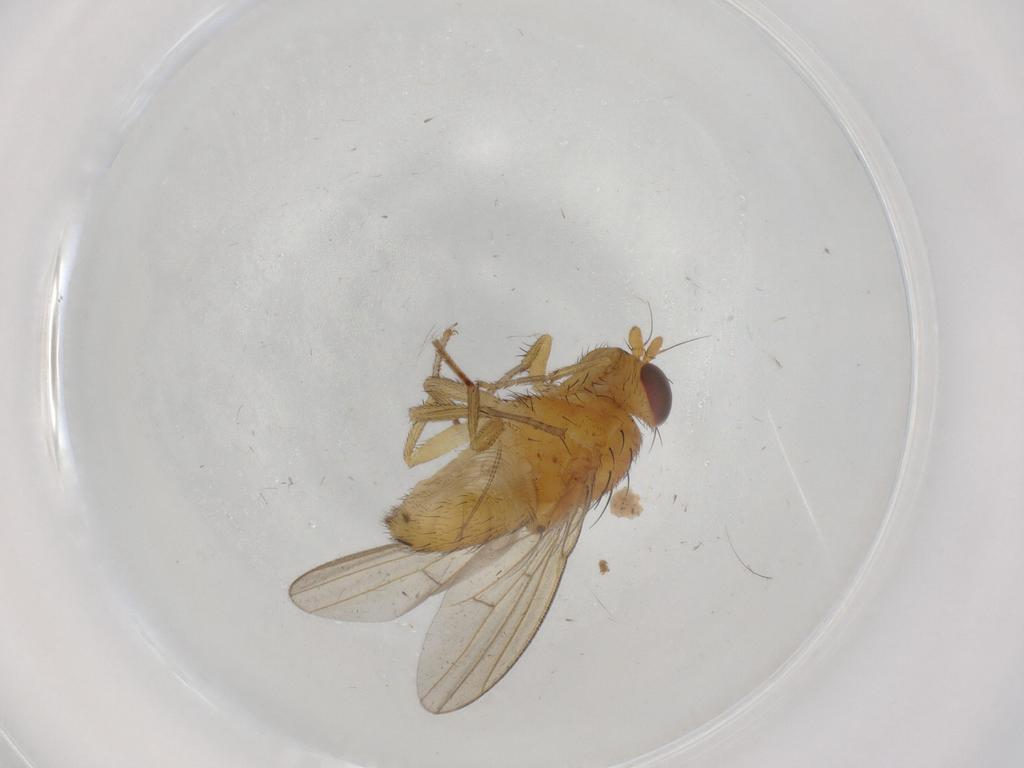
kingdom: Animalia
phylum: Arthropoda
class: Insecta
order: Diptera
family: Chironomidae
